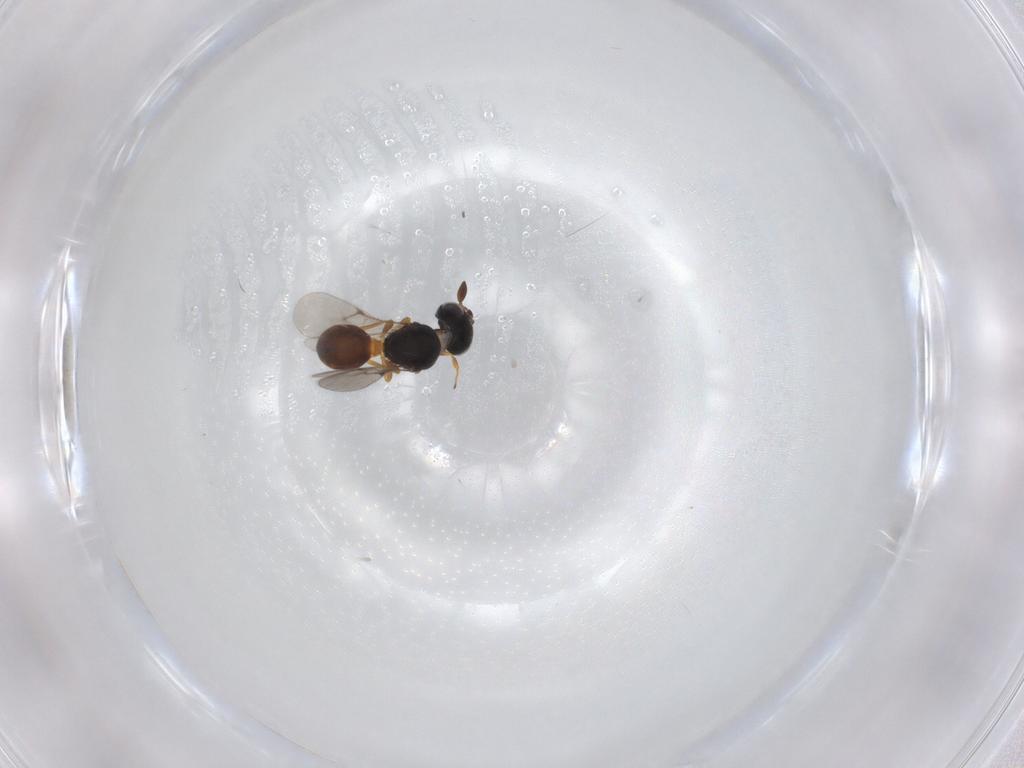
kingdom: Animalia
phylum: Arthropoda
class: Insecta
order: Hymenoptera
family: Scelionidae
